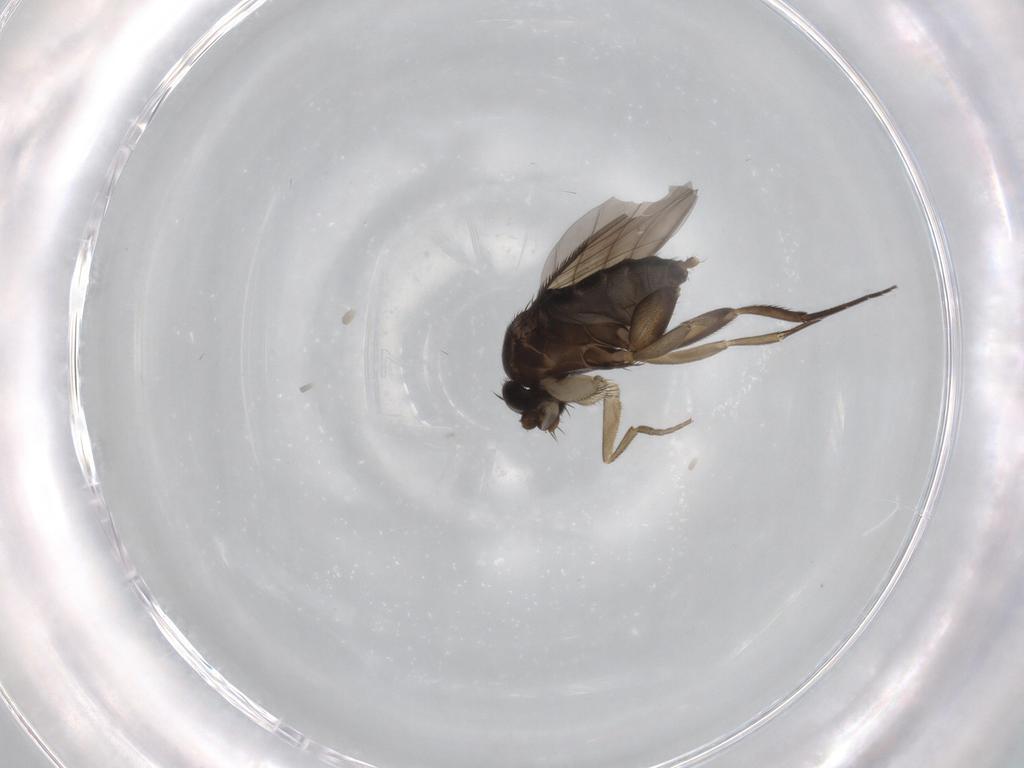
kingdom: Animalia
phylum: Arthropoda
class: Insecta
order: Diptera
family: Phoridae
